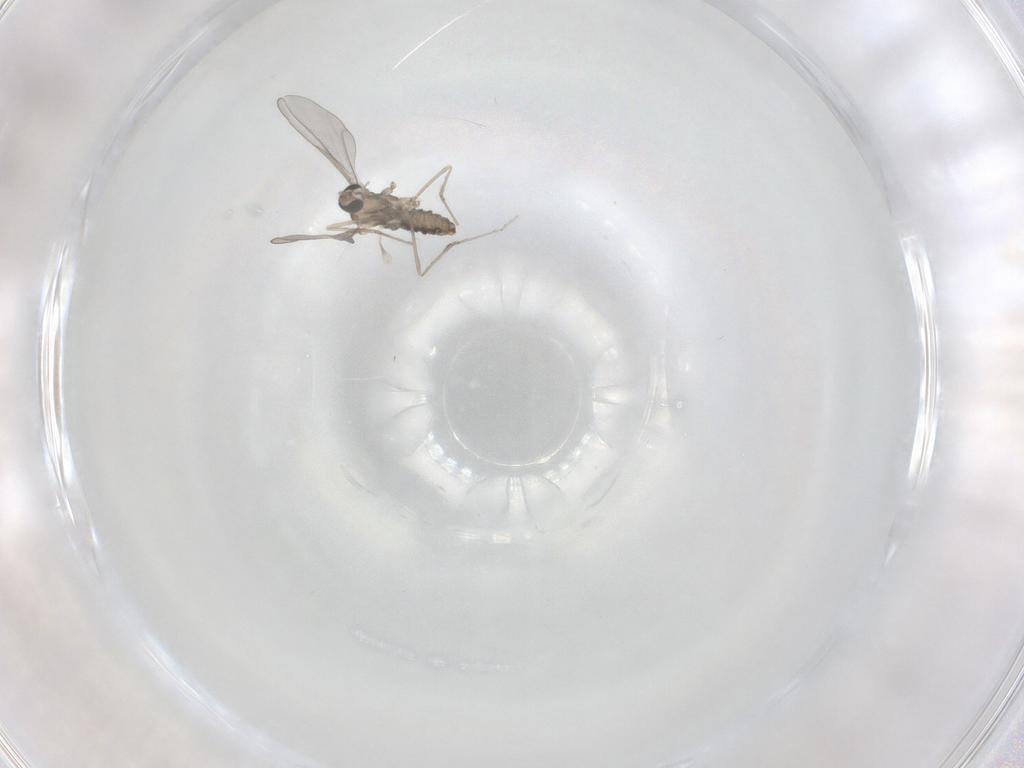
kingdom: Animalia
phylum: Arthropoda
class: Insecta
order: Diptera
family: Cecidomyiidae
